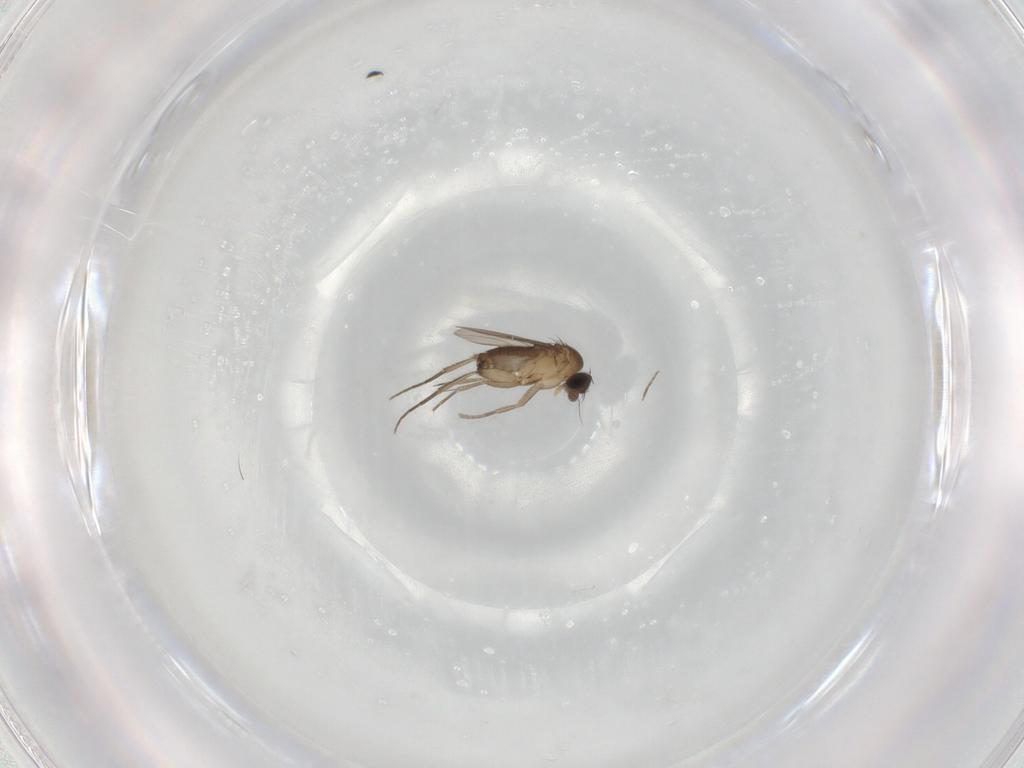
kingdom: Animalia
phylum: Arthropoda
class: Insecta
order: Diptera
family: Phoridae
